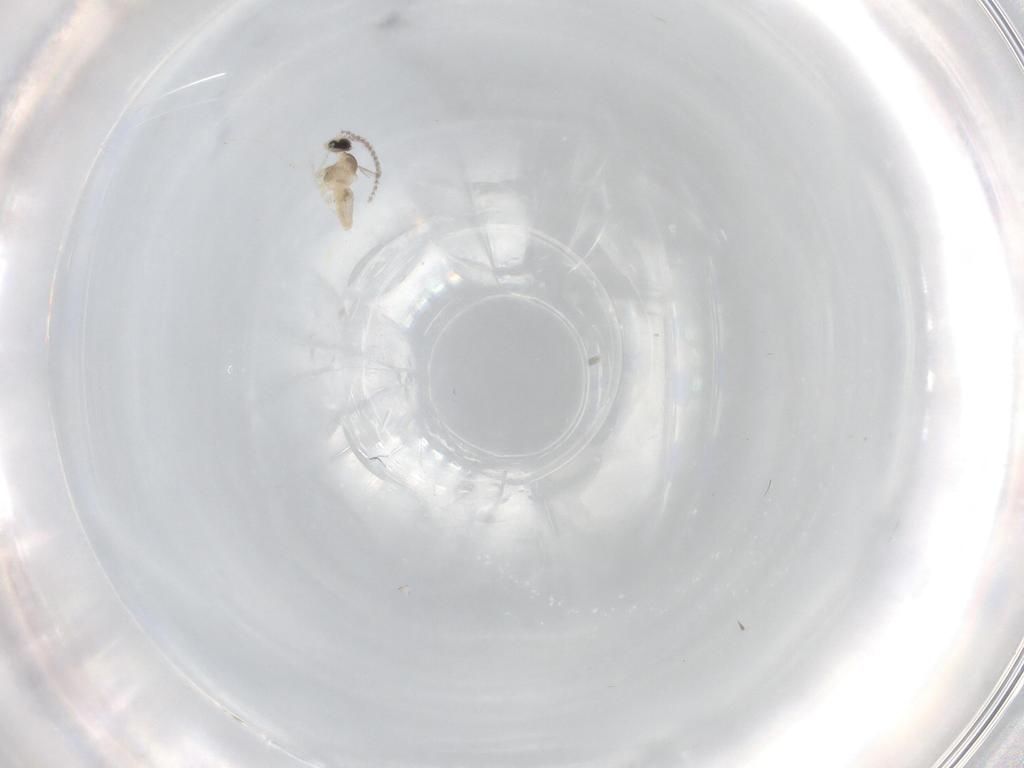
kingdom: Animalia
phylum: Arthropoda
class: Insecta
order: Diptera
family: Cecidomyiidae
